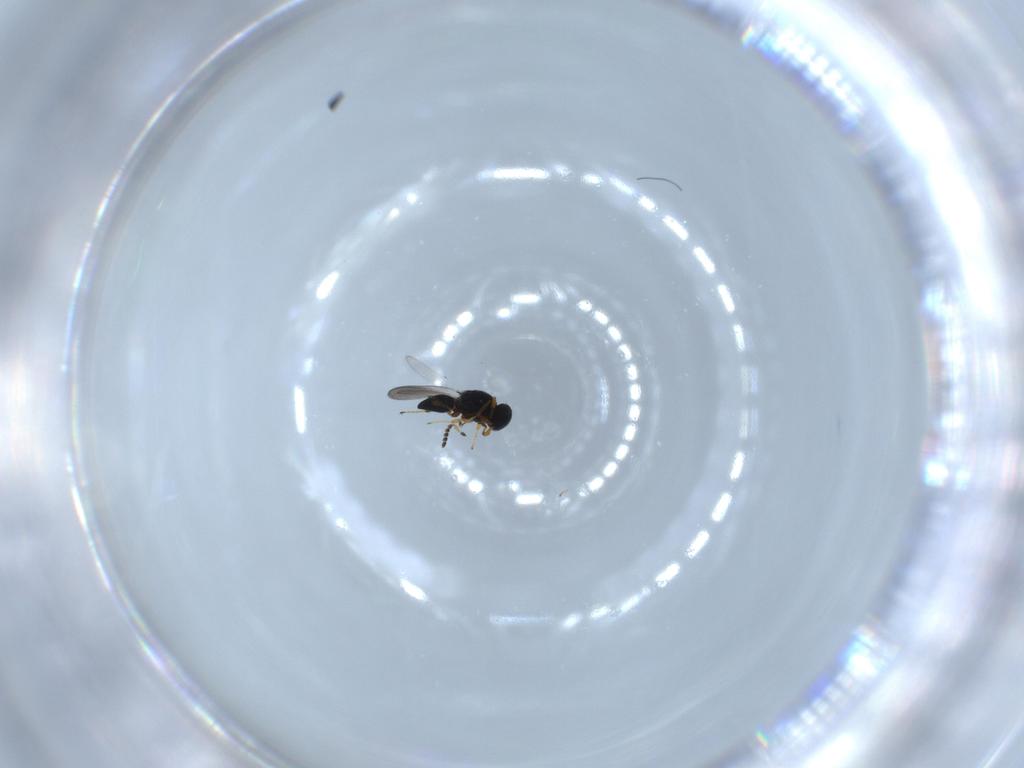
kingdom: Animalia
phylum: Arthropoda
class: Insecta
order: Hymenoptera
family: Platygastridae
